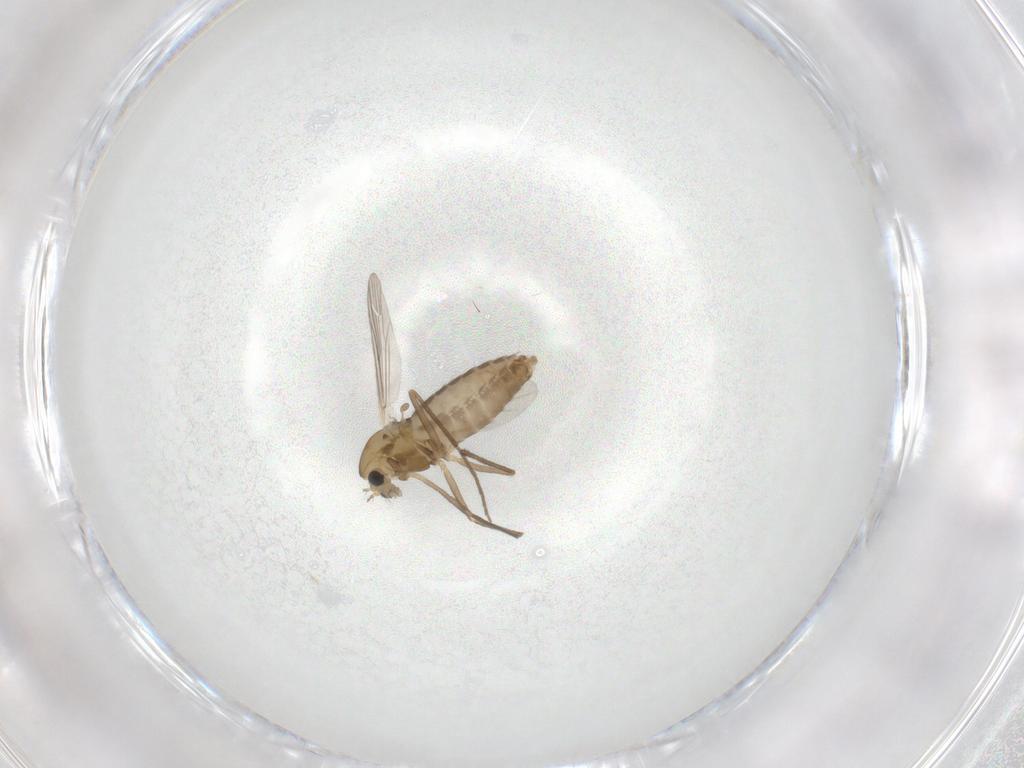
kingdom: Animalia
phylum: Arthropoda
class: Insecta
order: Diptera
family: Chironomidae
